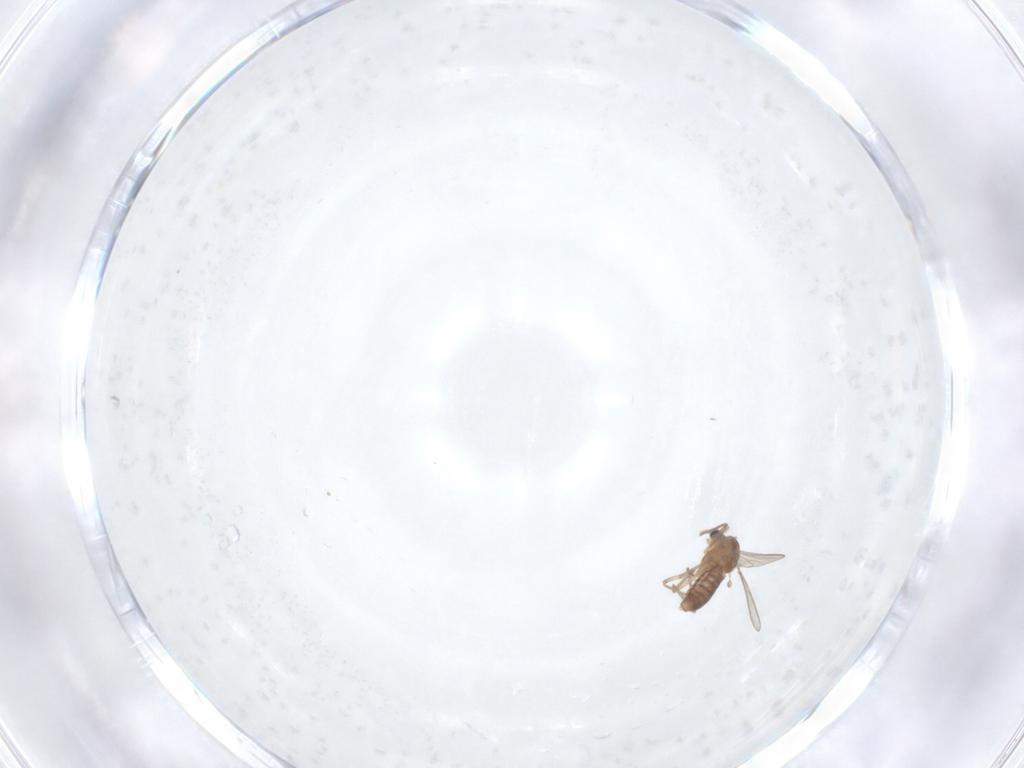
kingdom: Animalia
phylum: Arthropoda
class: Insecta
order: Diptera
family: Chironomidae
